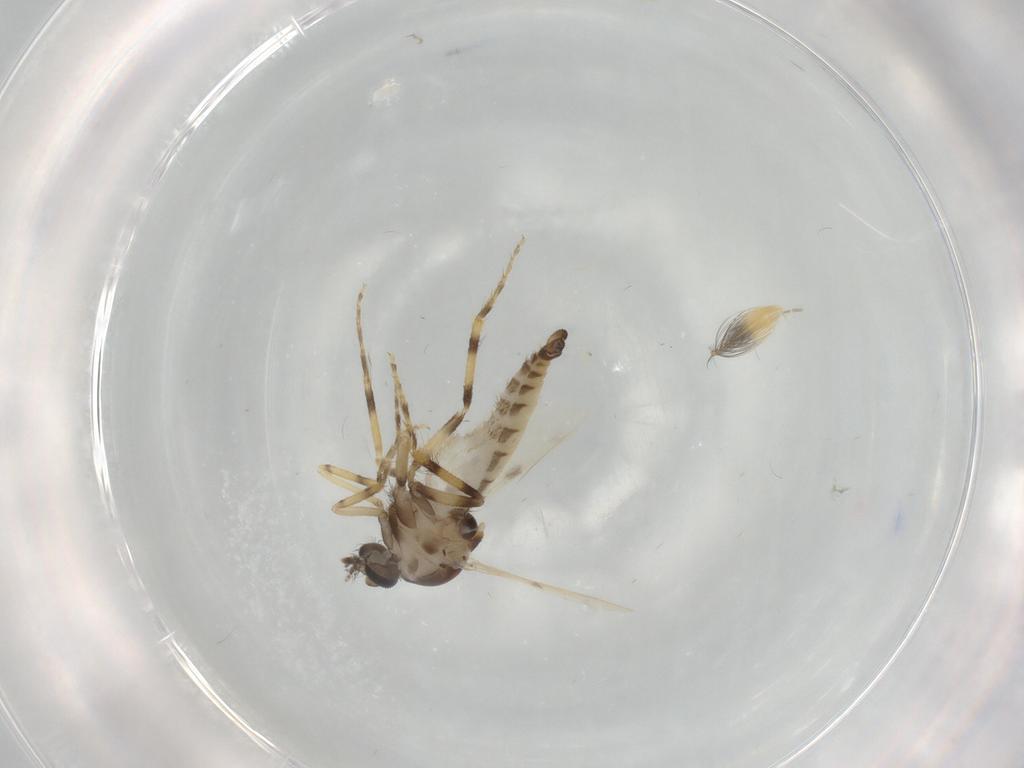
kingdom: Animalia
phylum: Arthropoda
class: Insecta
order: Diptera
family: Ceratopogonidae
